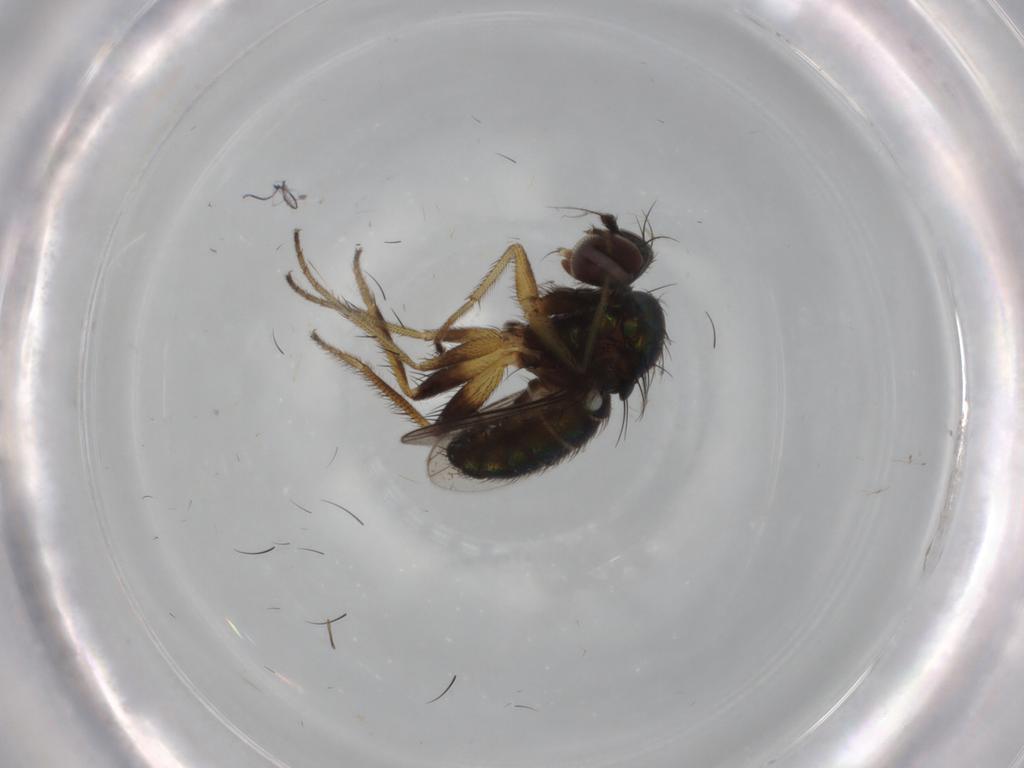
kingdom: Animalia
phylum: Arthropoda
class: Insecta
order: Diptera
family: Dolichopodidae
